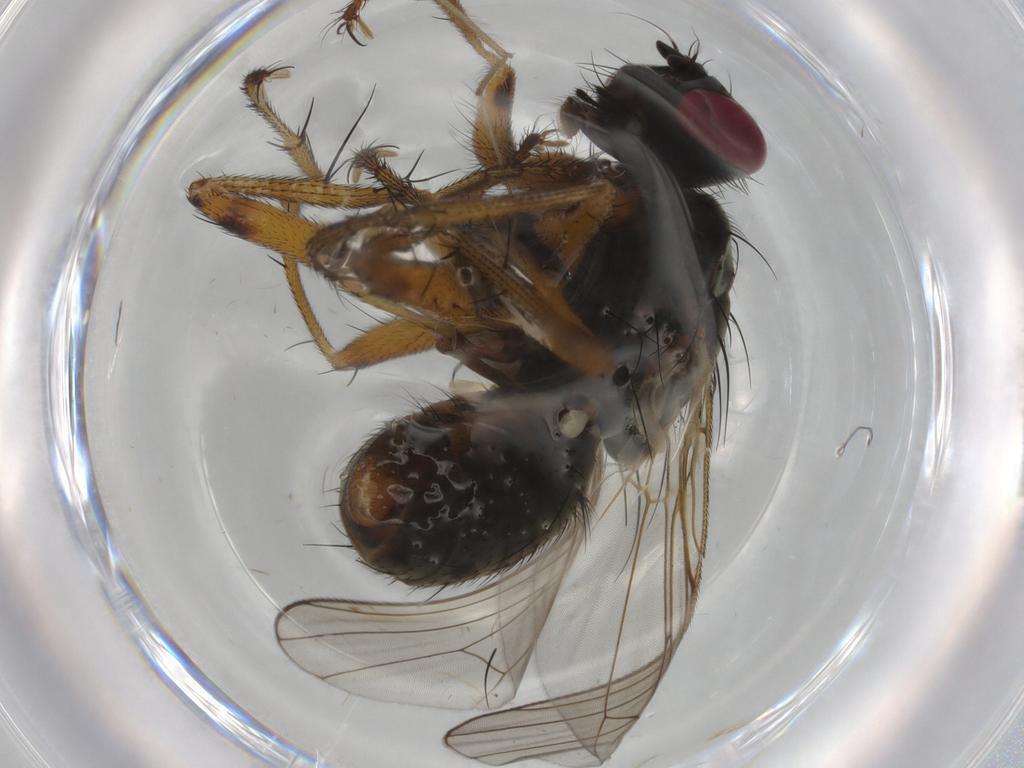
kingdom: Animalia
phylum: Arthropoda
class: Insecta
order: Diptera
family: Muscidae
